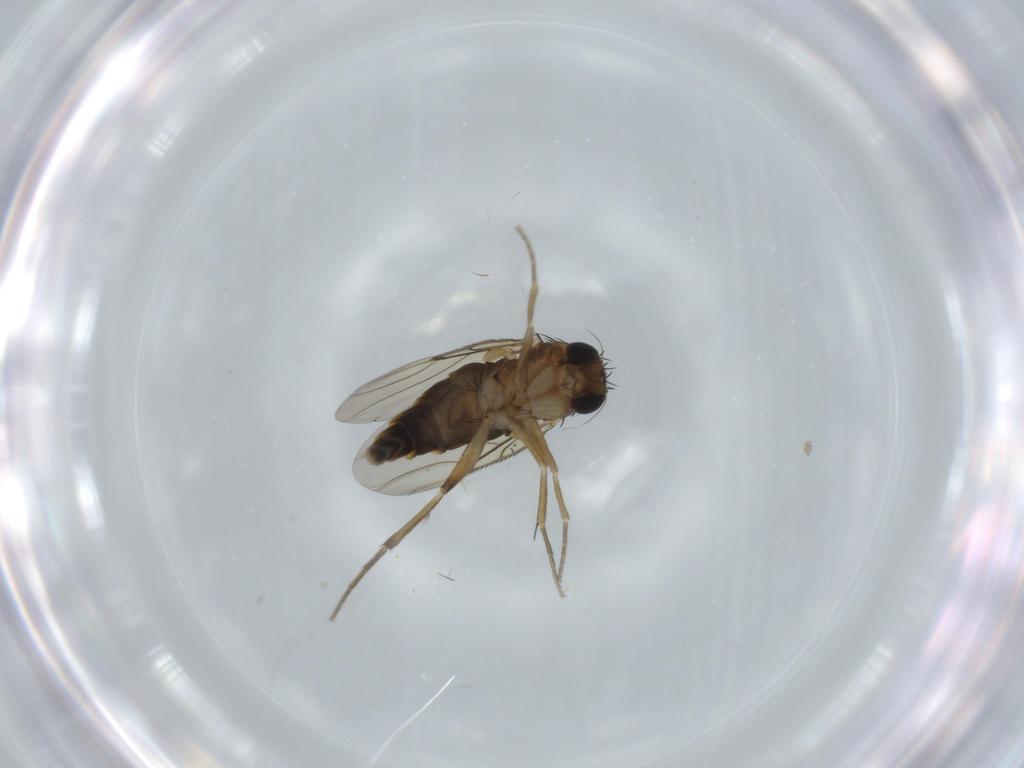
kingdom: Animalia
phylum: Arthropoda
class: Insecta
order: Diptera
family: Phoridae
